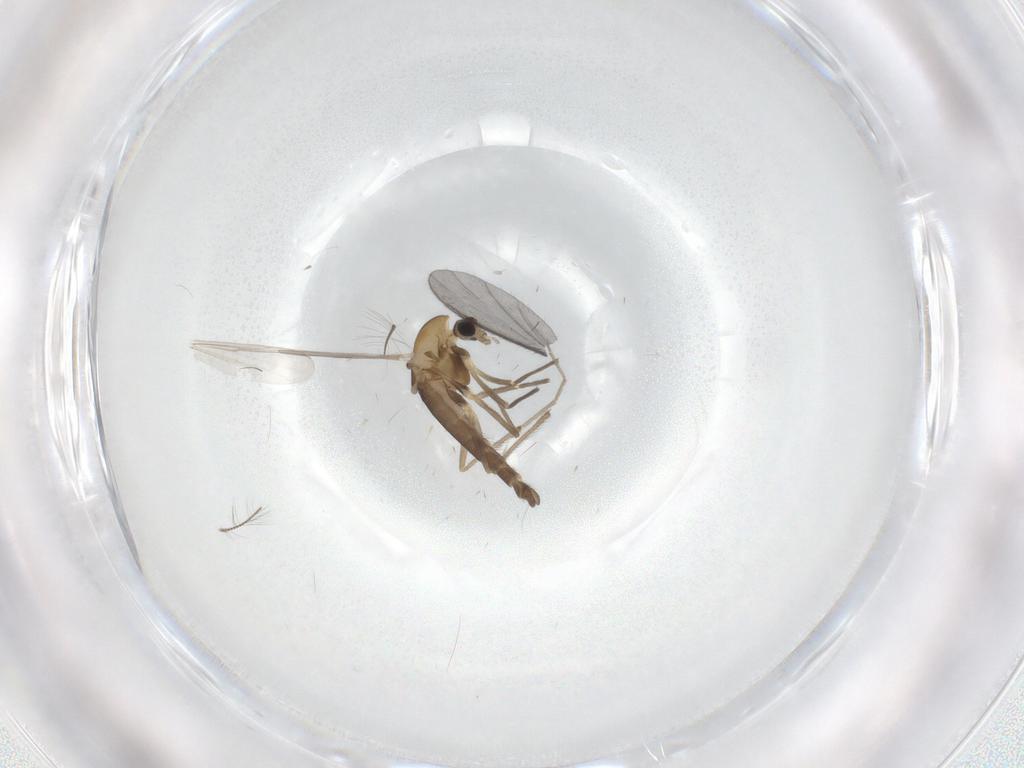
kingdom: Animalia
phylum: Arthropoda
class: Insecta
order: Diptera
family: Chironomidae
